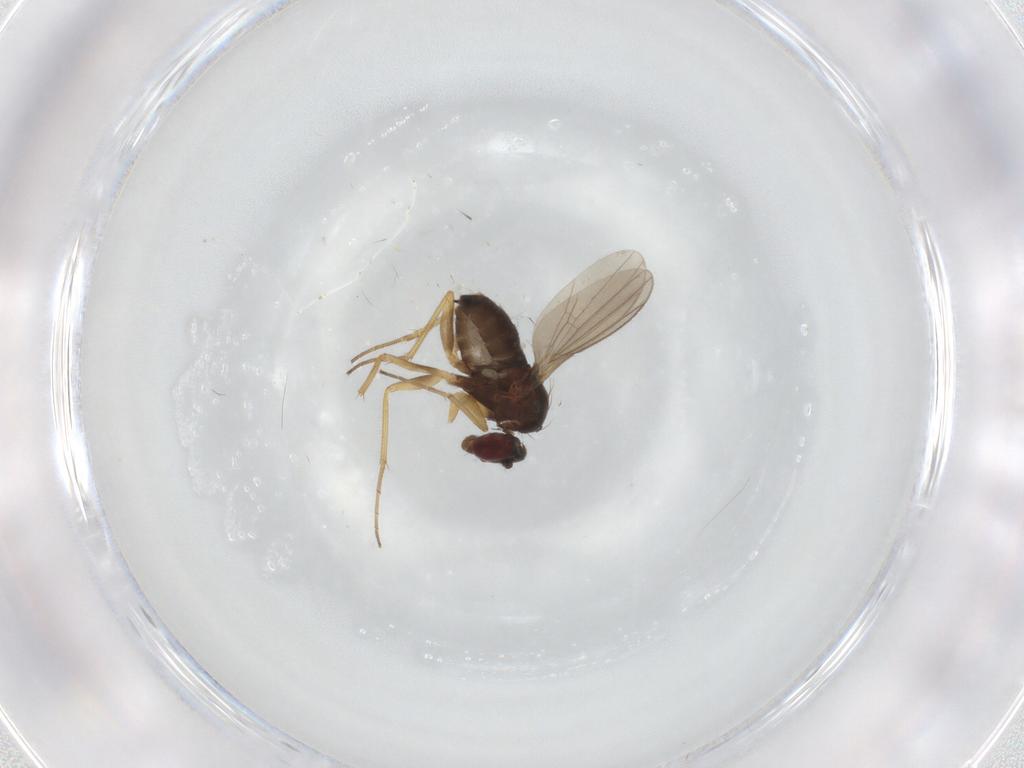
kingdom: Animalia
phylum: Arthropoda
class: Insecta
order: Diptera
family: Dolichopodidae
